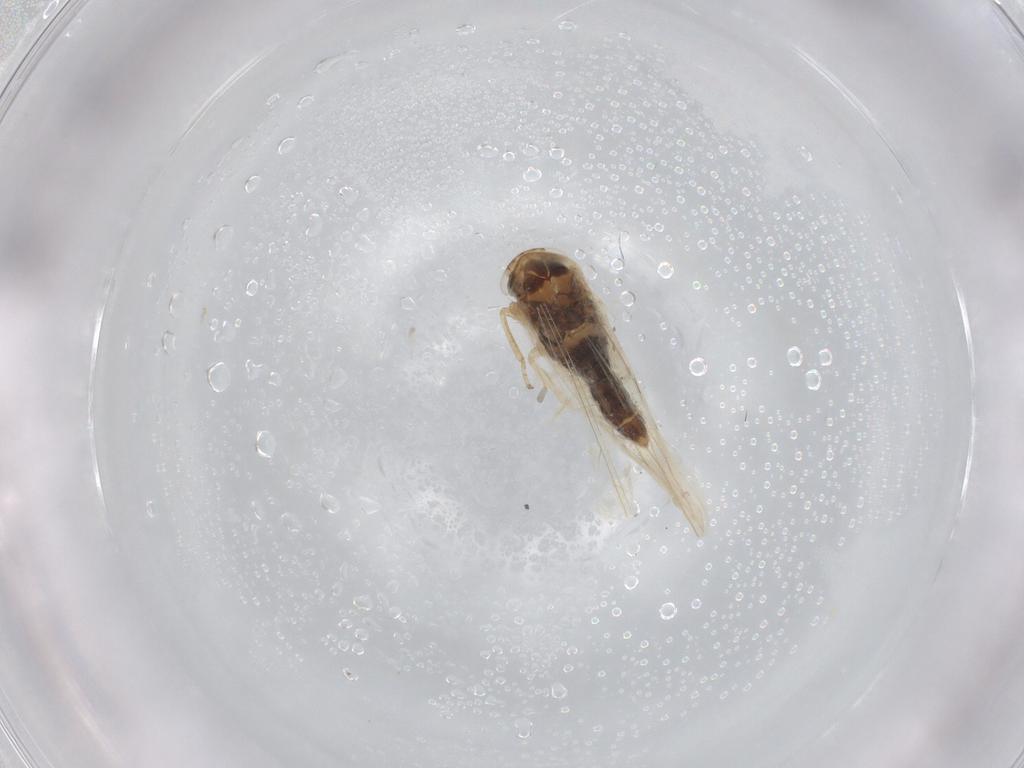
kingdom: Animalia
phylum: Arthropoda
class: Insecta
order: Hemiptera
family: Cicadellidae
